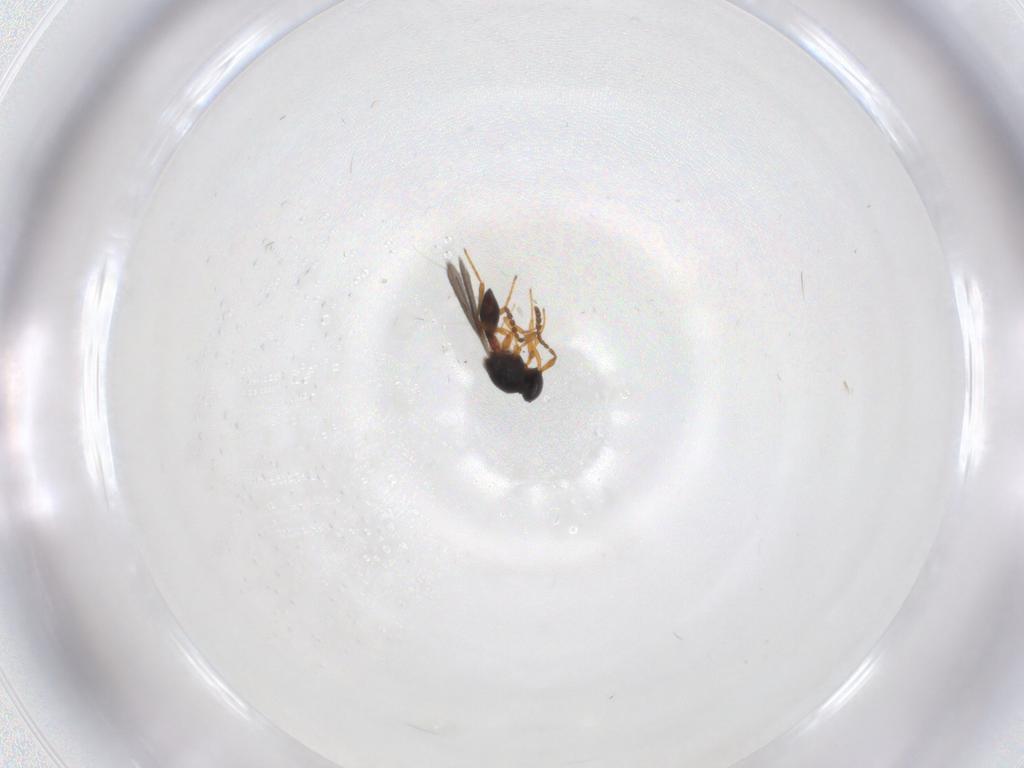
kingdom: Animalia
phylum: Arthropoda
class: Insecta
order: Hymenoptera
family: Platygastridae
